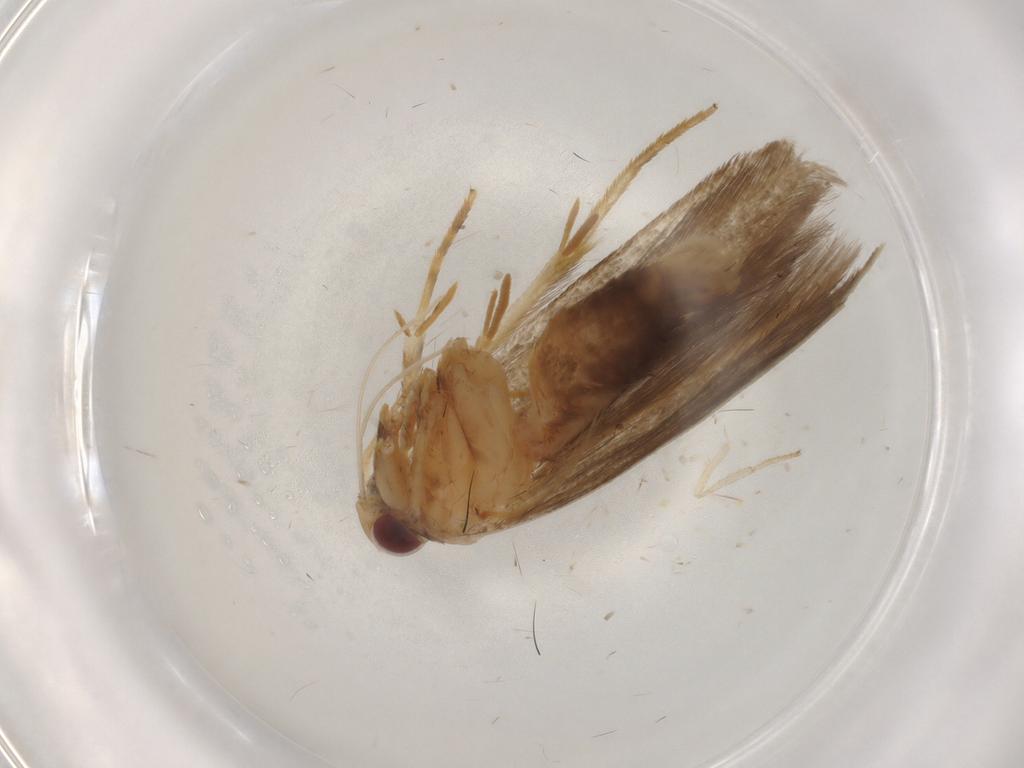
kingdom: Animalia
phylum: Arthropoda
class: Insecta
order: Lepidoptera
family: Cosmopterigidae
